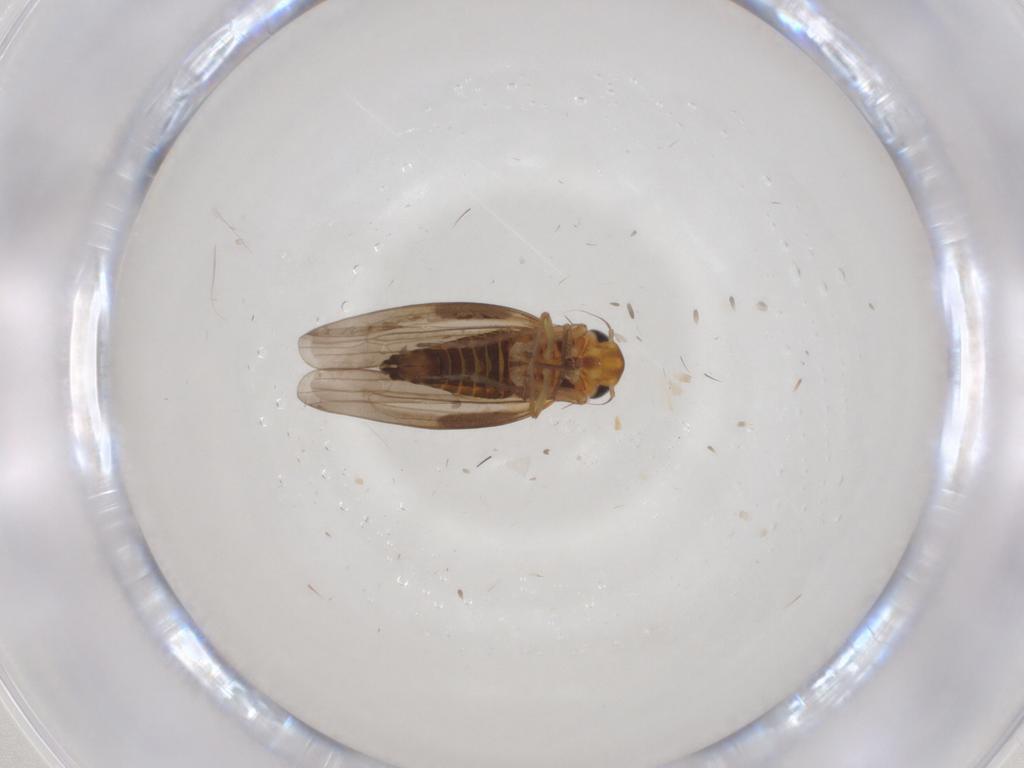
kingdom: Animalia
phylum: Arthropoda
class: Insecta
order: Hemiptera
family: Cicadellidae
